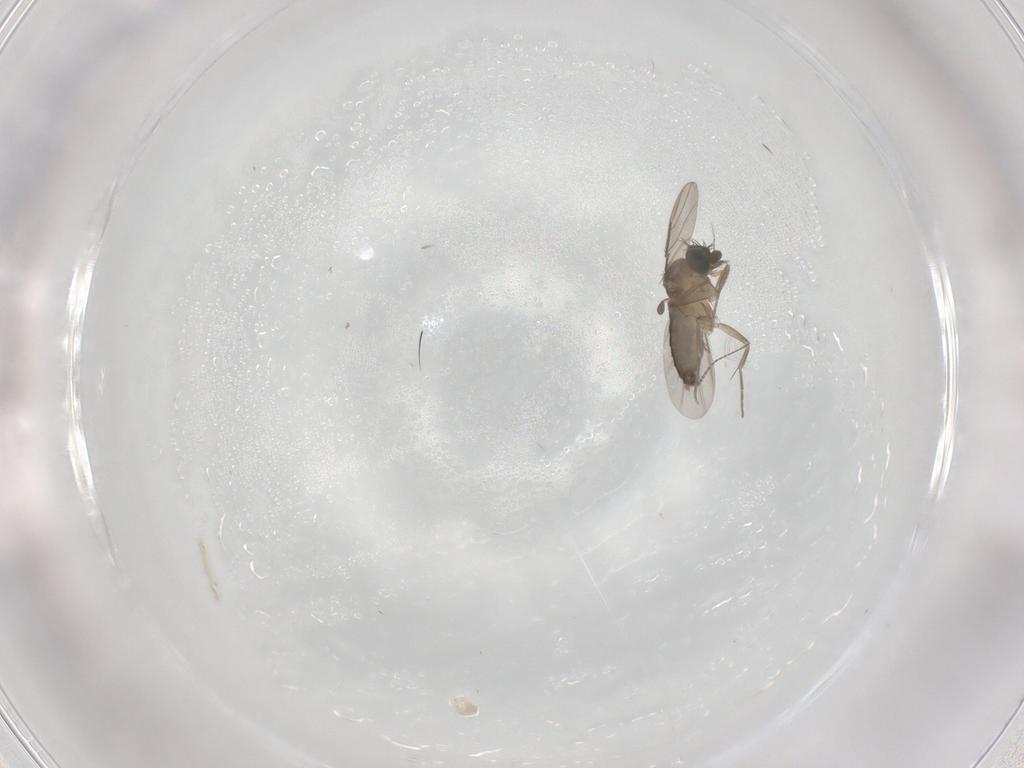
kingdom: Animalia
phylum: Arthropoda
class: Insecta
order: Diptera
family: Phoridae
